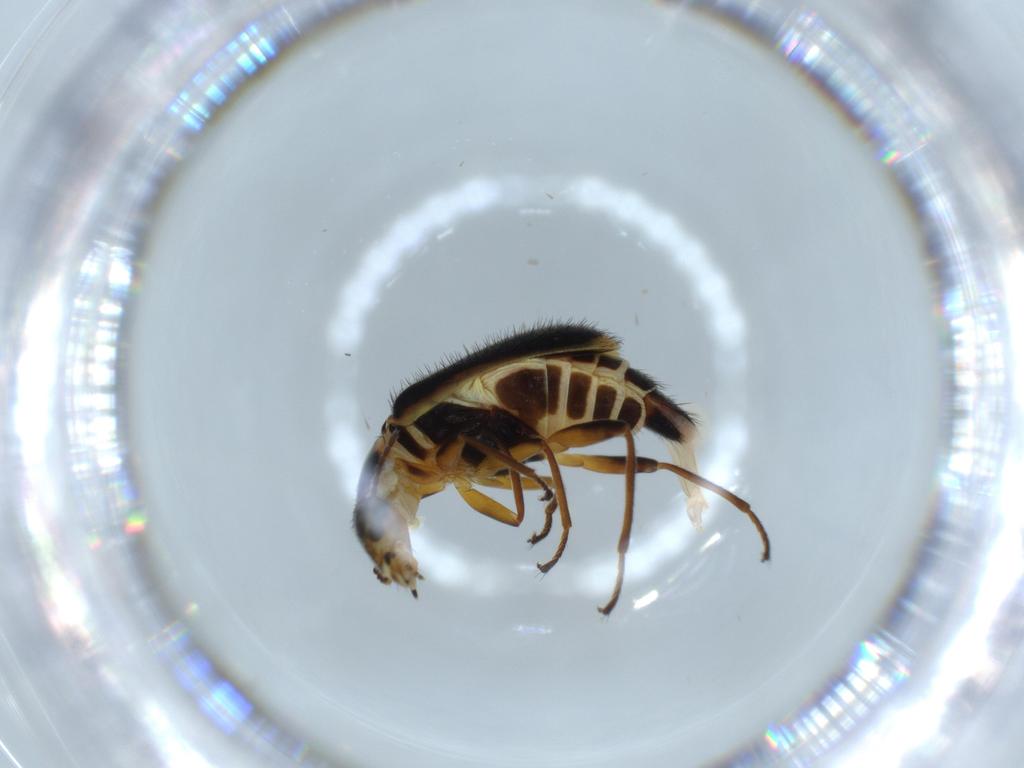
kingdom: Animalia
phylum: Arthropoda
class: Insecta
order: Coleoptera
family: Melyridae
